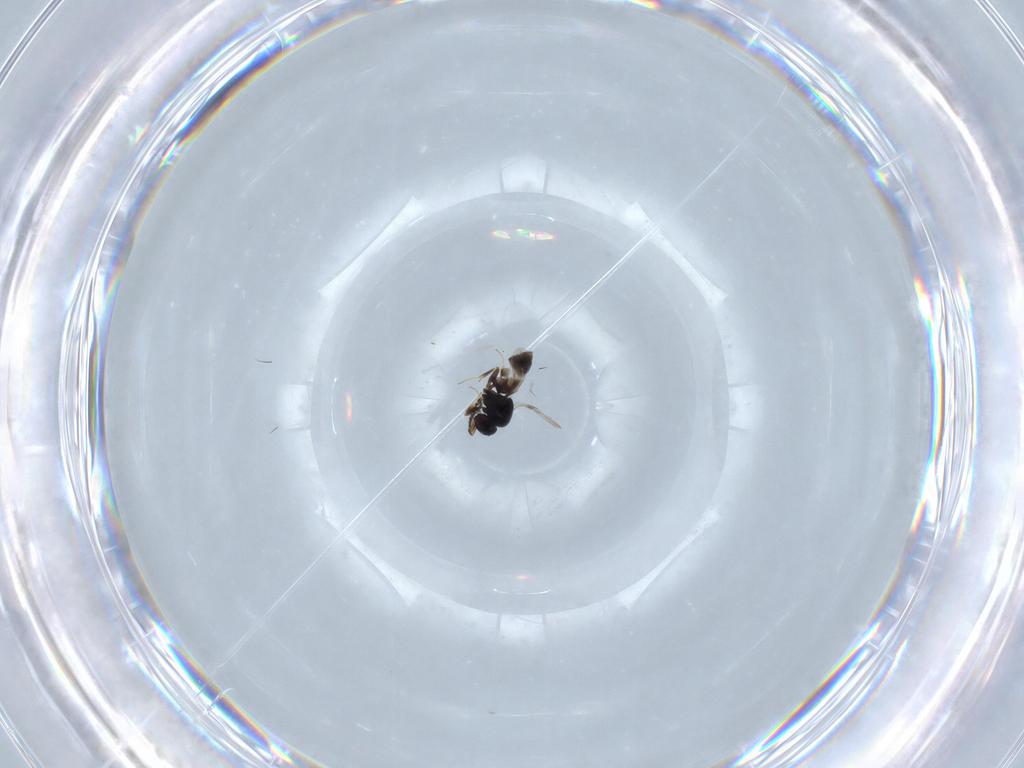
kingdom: Animalia
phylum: Arthropoda
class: Insecta
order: Hymenoptera
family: Ceraphronidae
